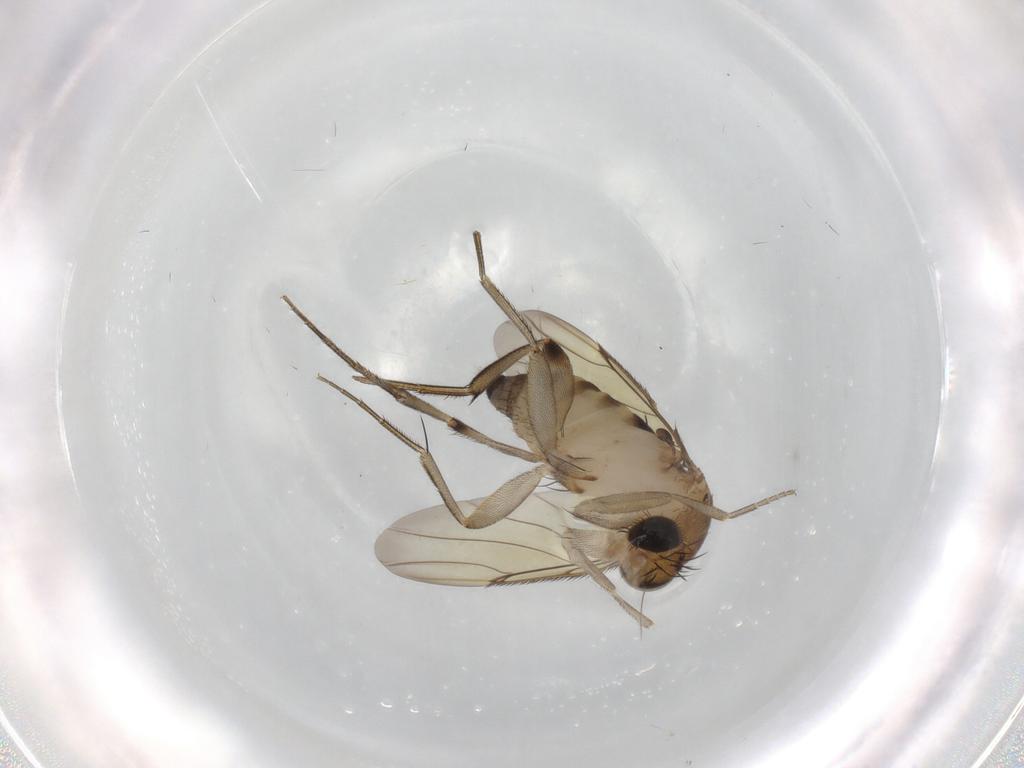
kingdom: Animalia
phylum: Arthropoda
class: Insecta
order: Diptera
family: Phoridae
